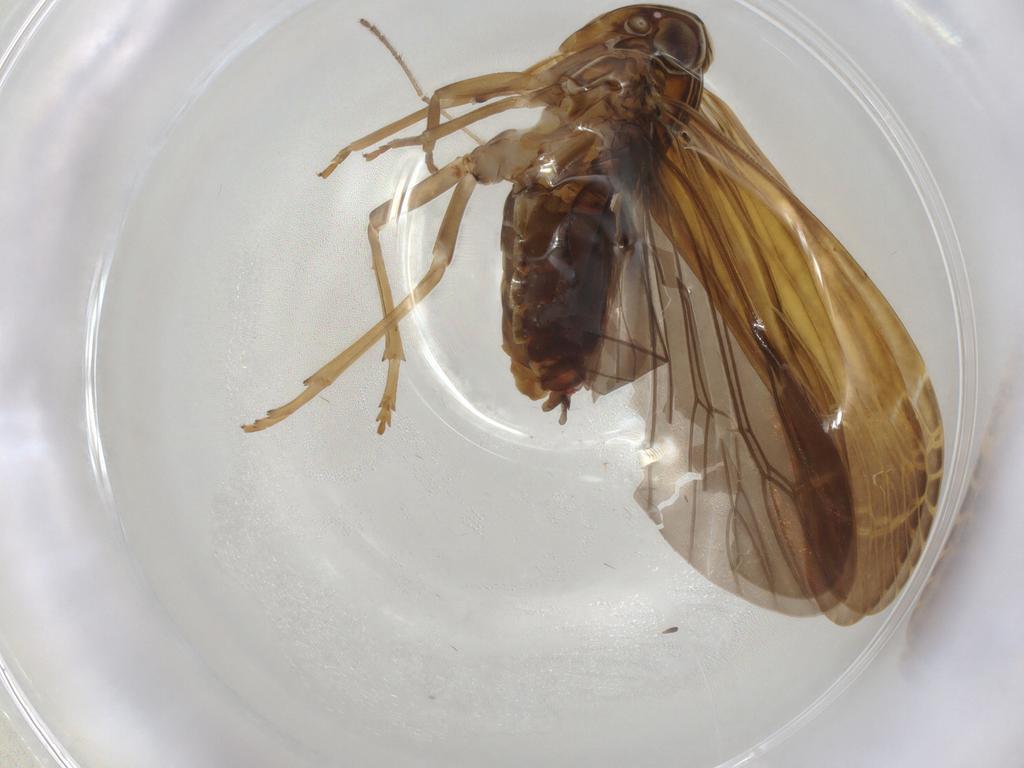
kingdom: Animalia
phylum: Arthropoda
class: Insecta
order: Hemiptera
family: Achilidae
